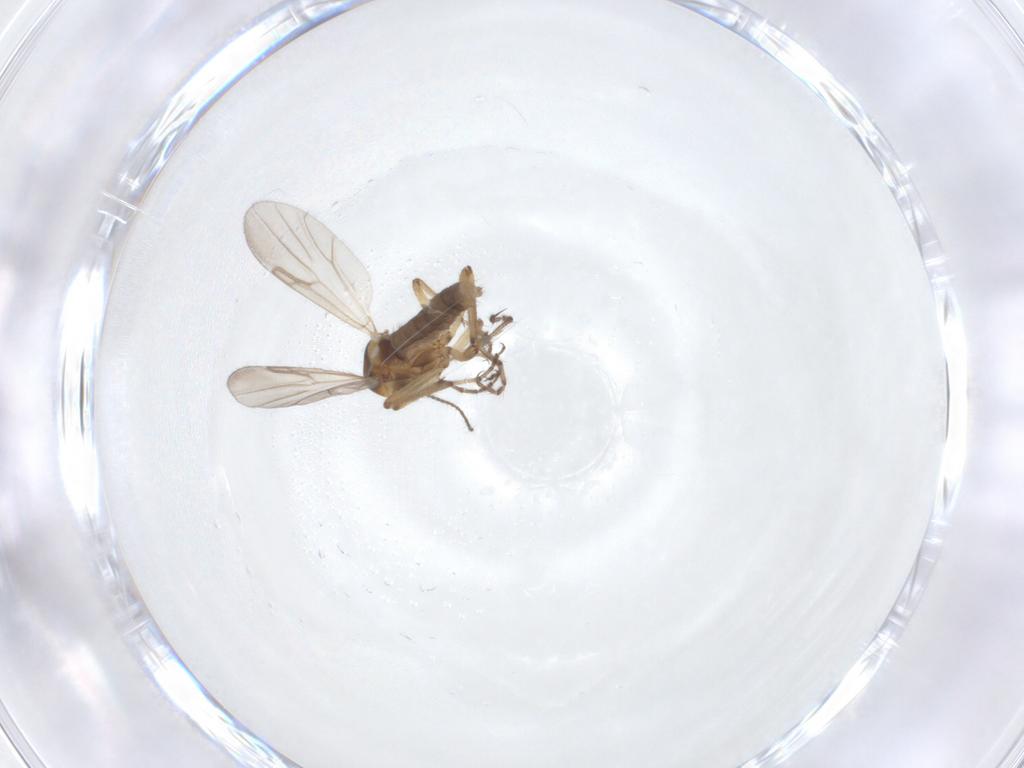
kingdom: Animalia
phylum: Arthropoda
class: Insecta
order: Diptera
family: Ceratopogonidae
